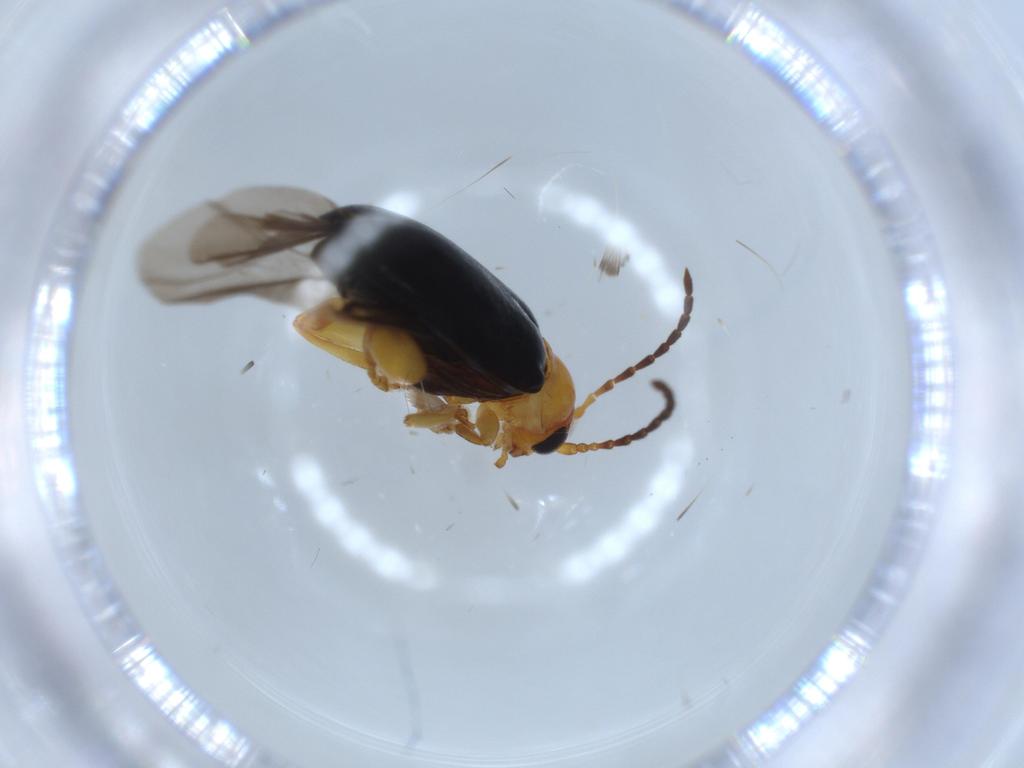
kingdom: Animalia
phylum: Arthropoda
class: Insecta
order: Coleoptera
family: Chrysomelidae
